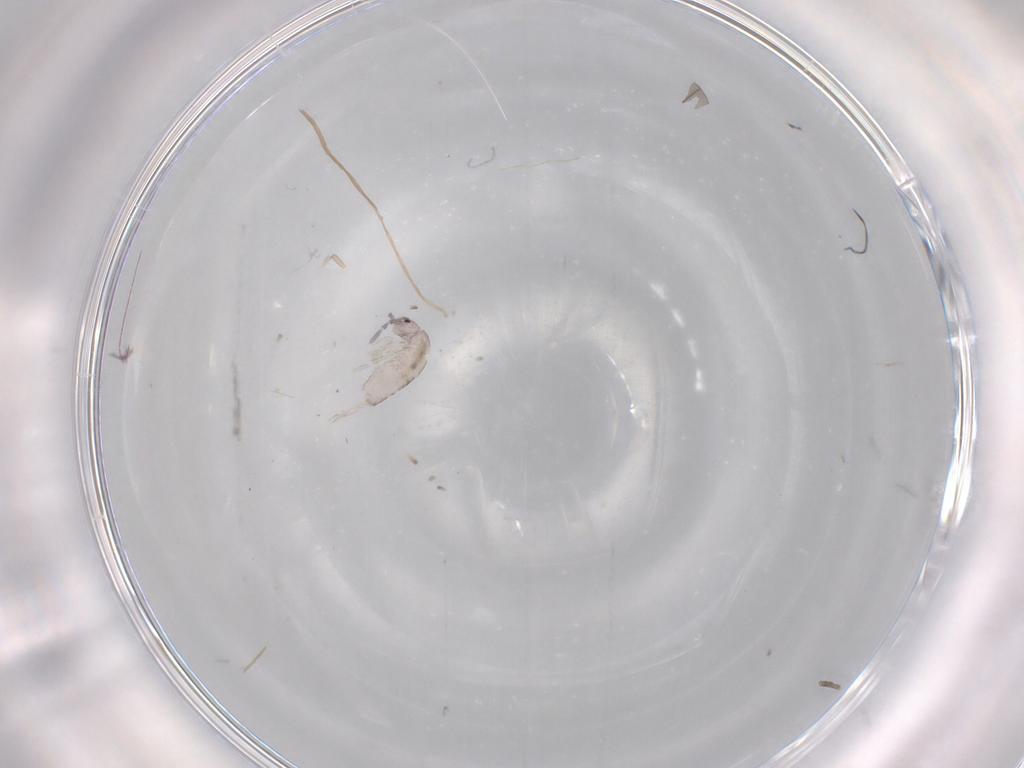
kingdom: Animalia
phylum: Arthropoda
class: Collembola
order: Entomobryomorpha
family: Entomobryidae
